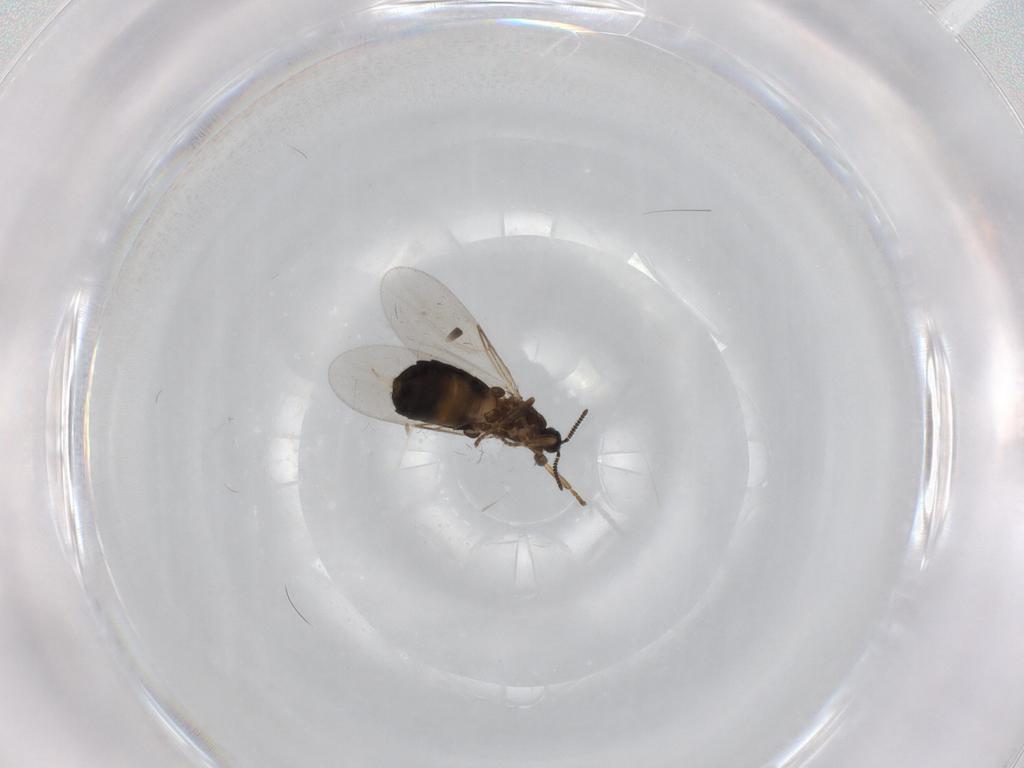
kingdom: Animalia
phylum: Arthropoda
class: Insecta
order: Diptera
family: Scatopsidae
